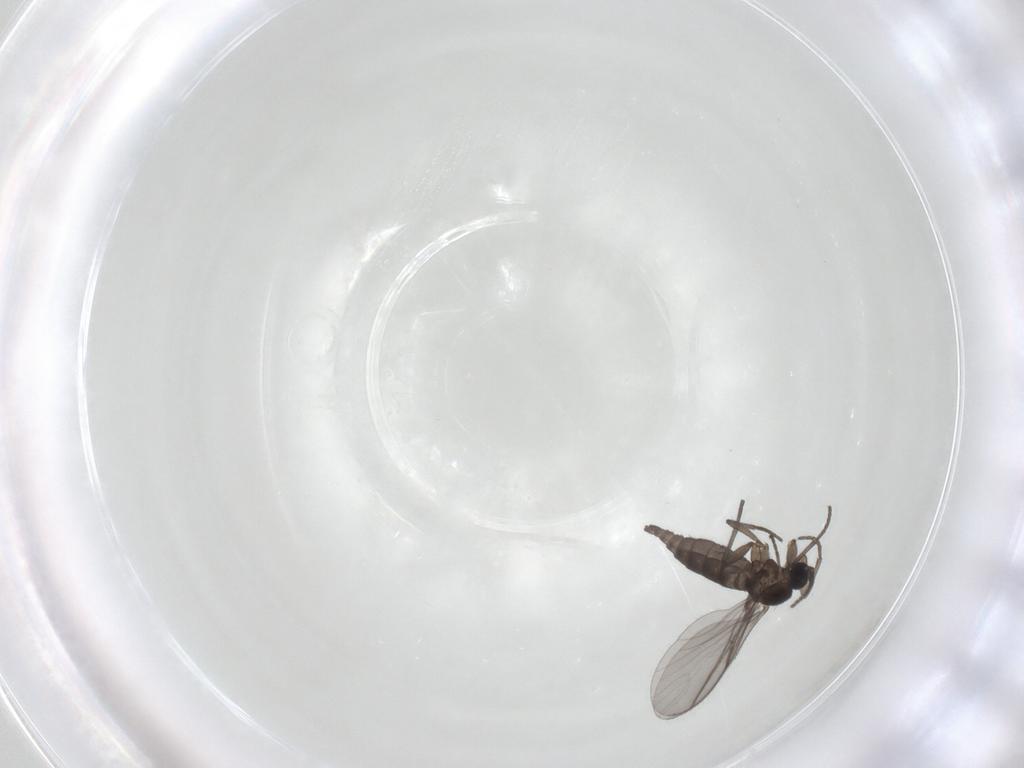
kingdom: Animalia
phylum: Arthropoda
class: Insecta
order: Diptera
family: Sciaridae
